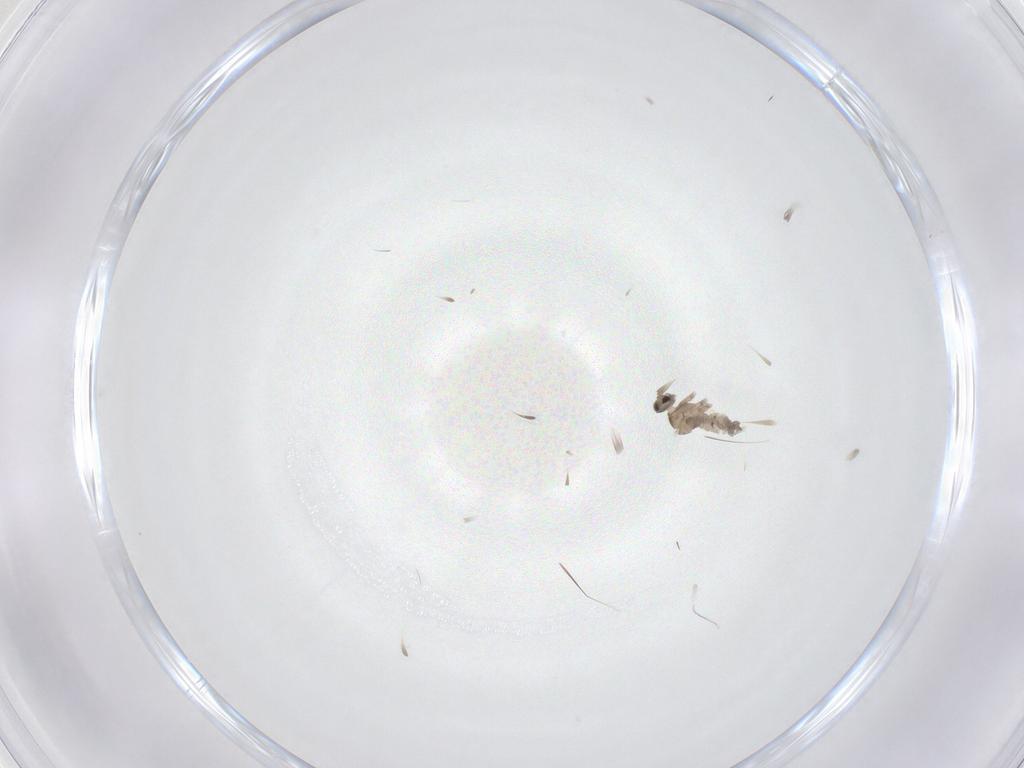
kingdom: Animalia
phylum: Arthropoda
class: Insecta
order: Diptera
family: Cecidomyiidae
